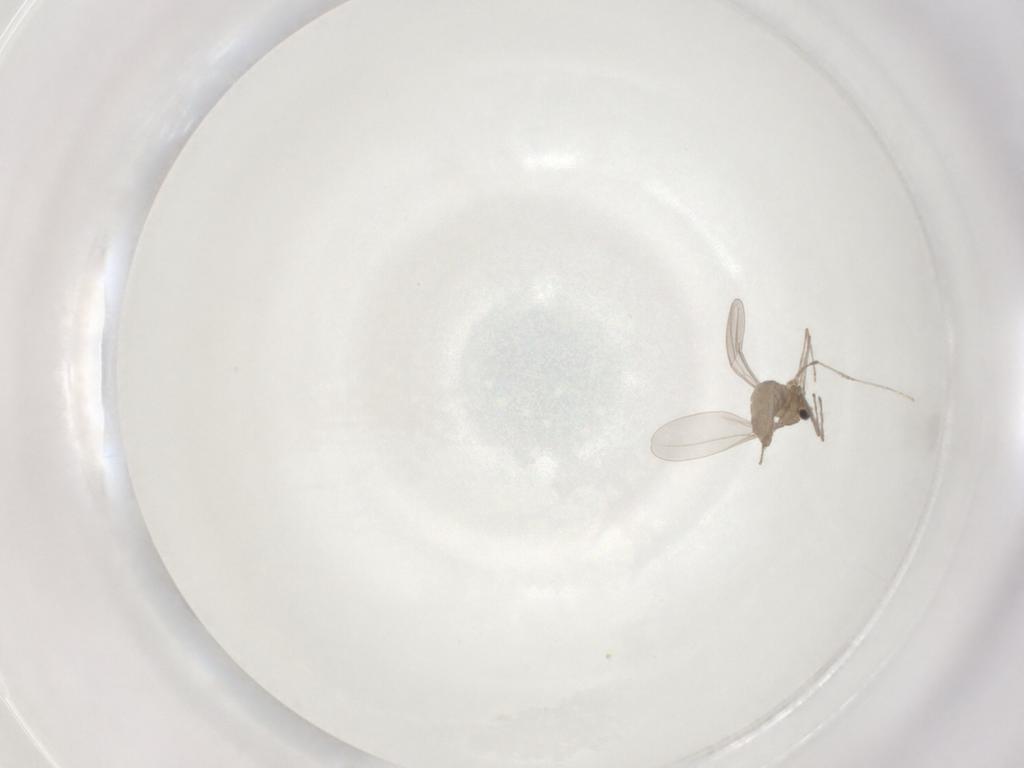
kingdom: Animalia
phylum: Arthropoda
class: Insecta
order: Diptera
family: Cecidomyiidae
